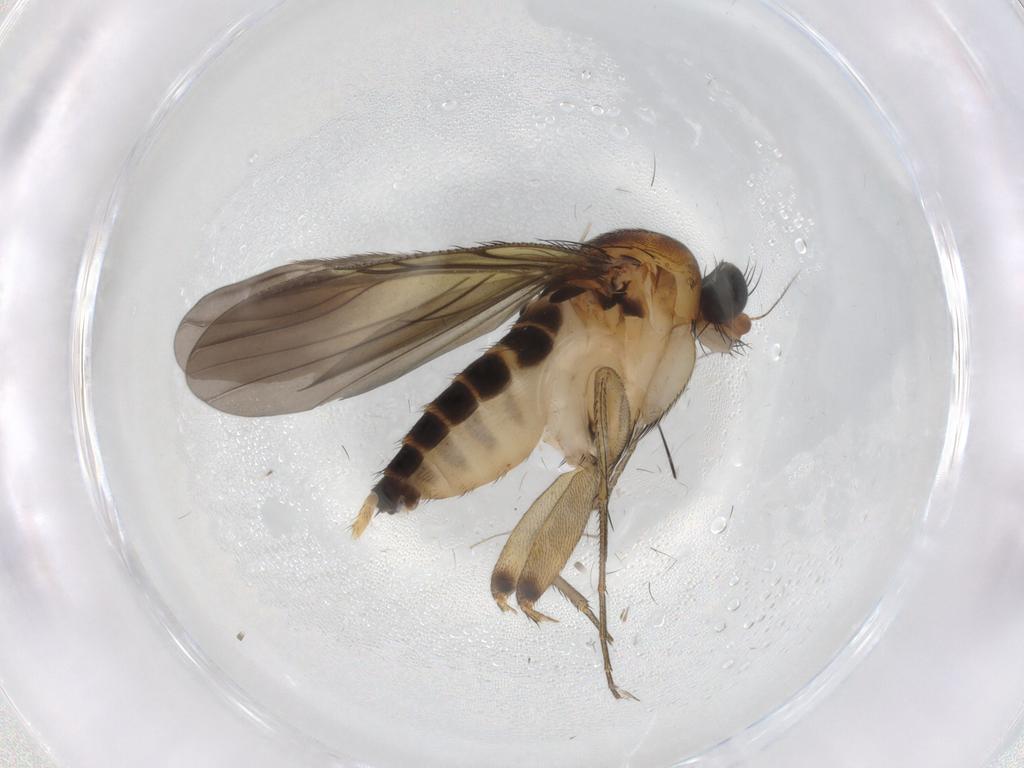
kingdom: Animalia
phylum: Arthropoda
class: Insecta
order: Diptera
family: Phoridae
